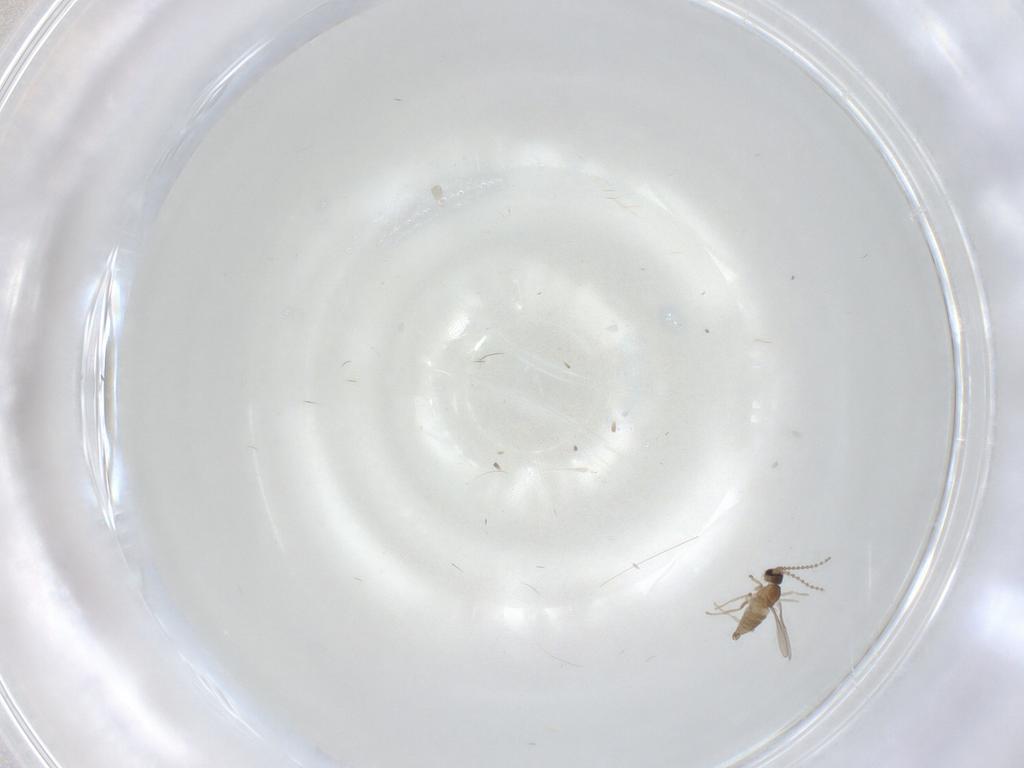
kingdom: Animalia
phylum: Arthropoda
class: Insecta
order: Diptera
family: Cecidomyiidae
